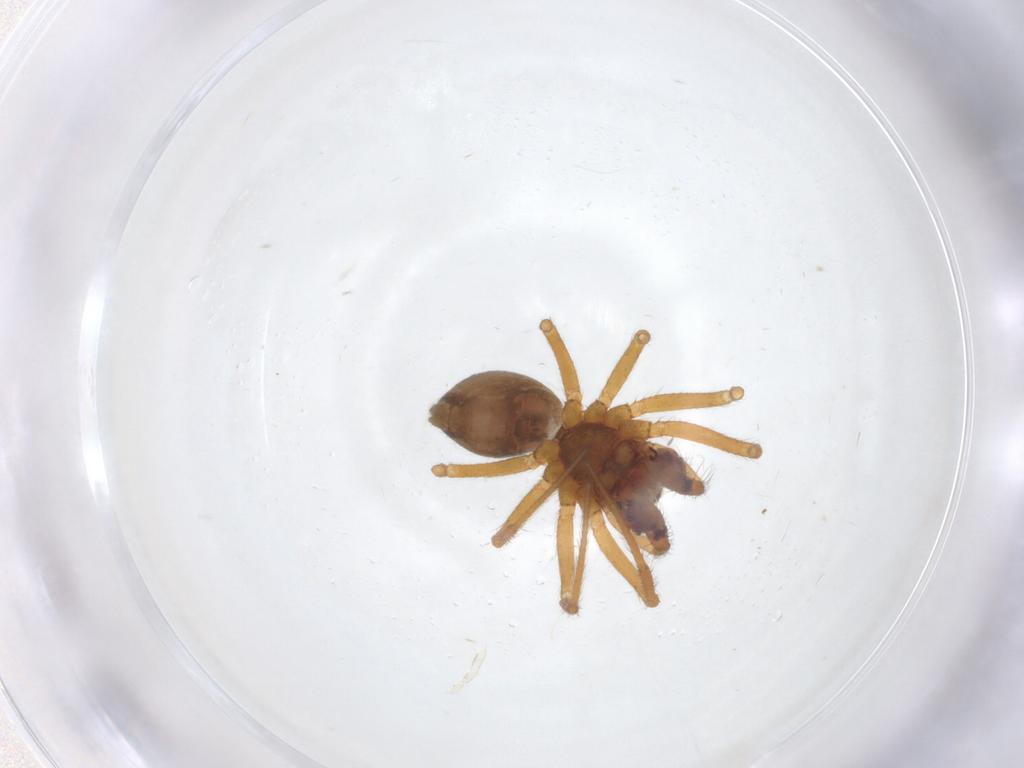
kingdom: Animalia
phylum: Arthropoda
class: Arachnida
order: Araneae
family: Linyphiidae
